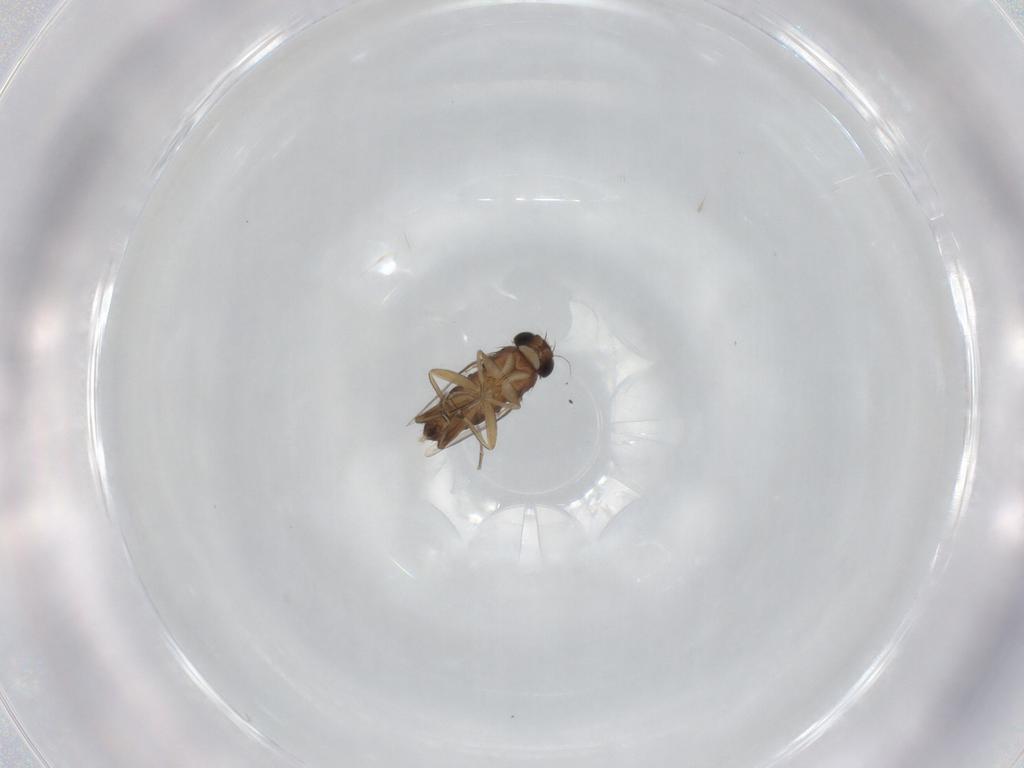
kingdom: Animalia
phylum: Arthropoda
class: Insecta
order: Diptera
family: Culicidae
